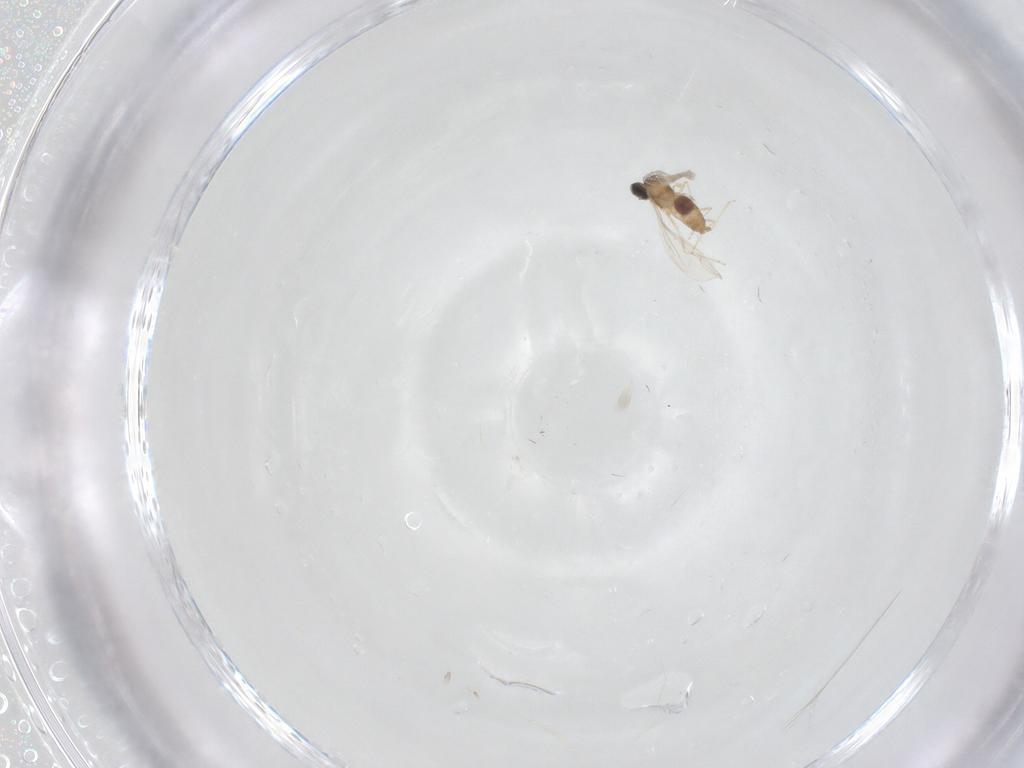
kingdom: Animalia
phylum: Arthropoda
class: Insecta
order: Diptera
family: Cecidomyiidae
